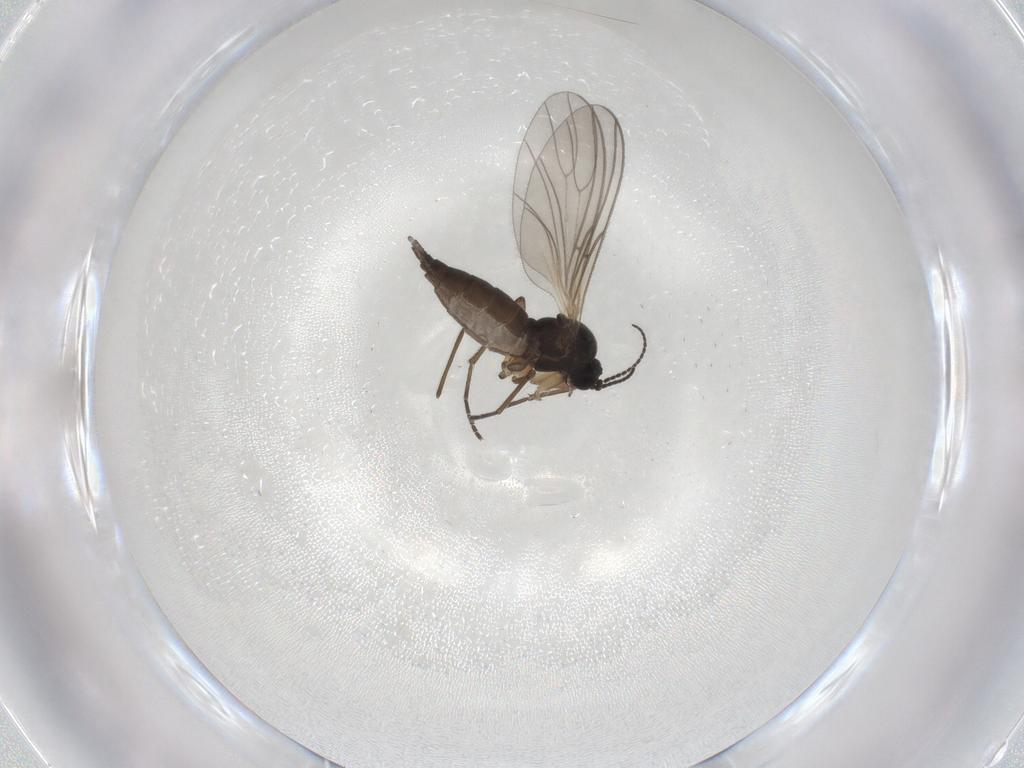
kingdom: Animalia
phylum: Arthropoda
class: Insecta
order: Diptera
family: Sciaridae
